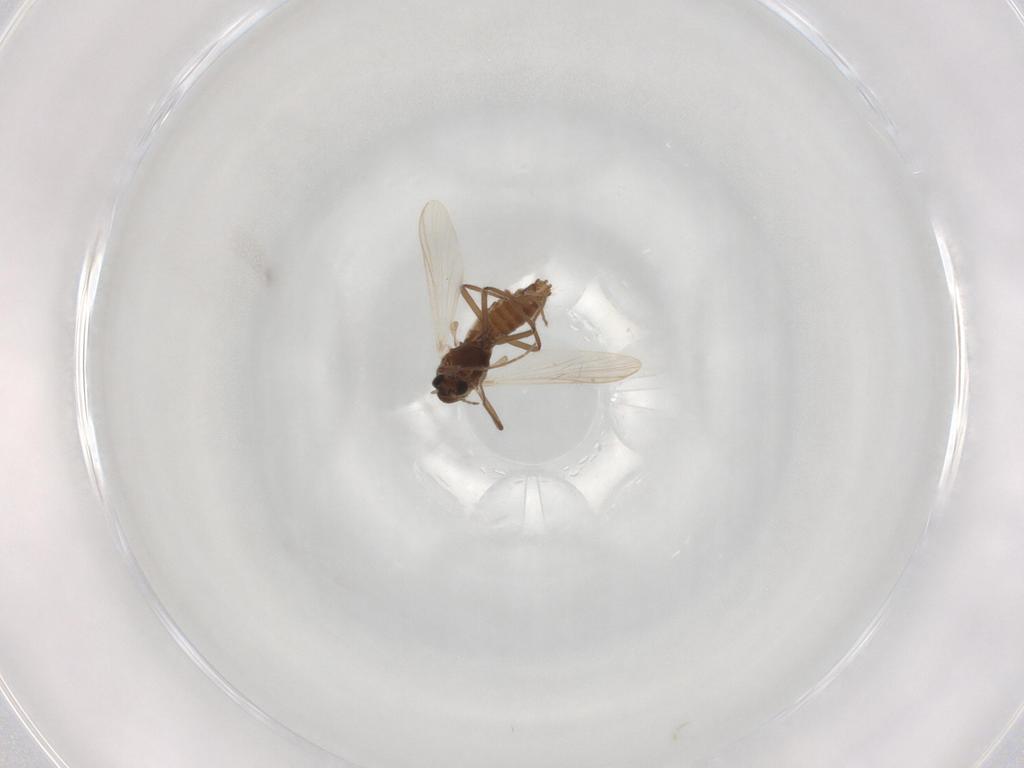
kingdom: Animalia
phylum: Arthropoda
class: Insecta
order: Diptera
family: Chironomidae
